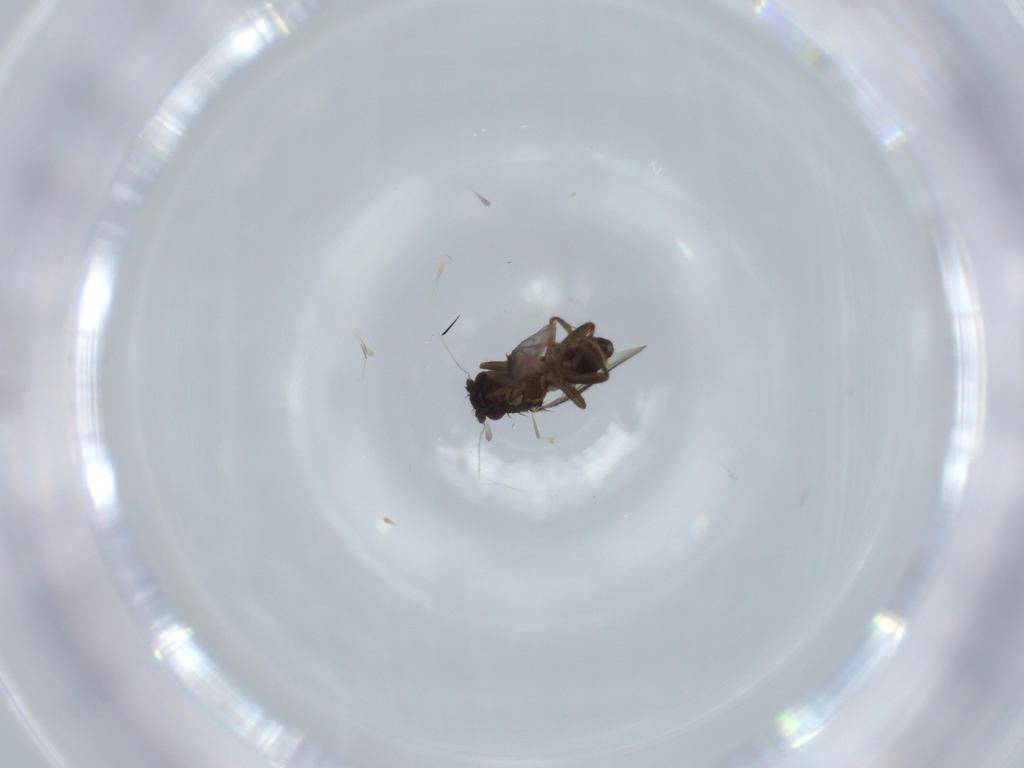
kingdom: Animalia
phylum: Arthropoda
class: Insecta
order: Diptera
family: Sphaeroceridae
